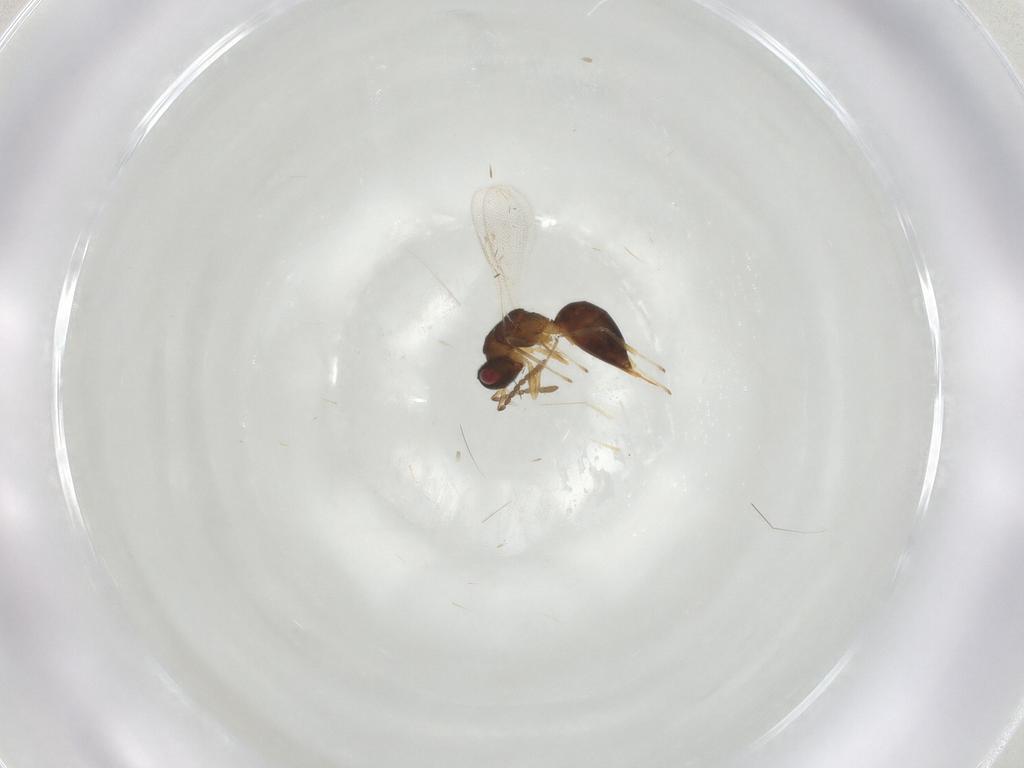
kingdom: Animalia
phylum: Arthropoda
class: Insecta
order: Hymenoptera
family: Eurytomidae
